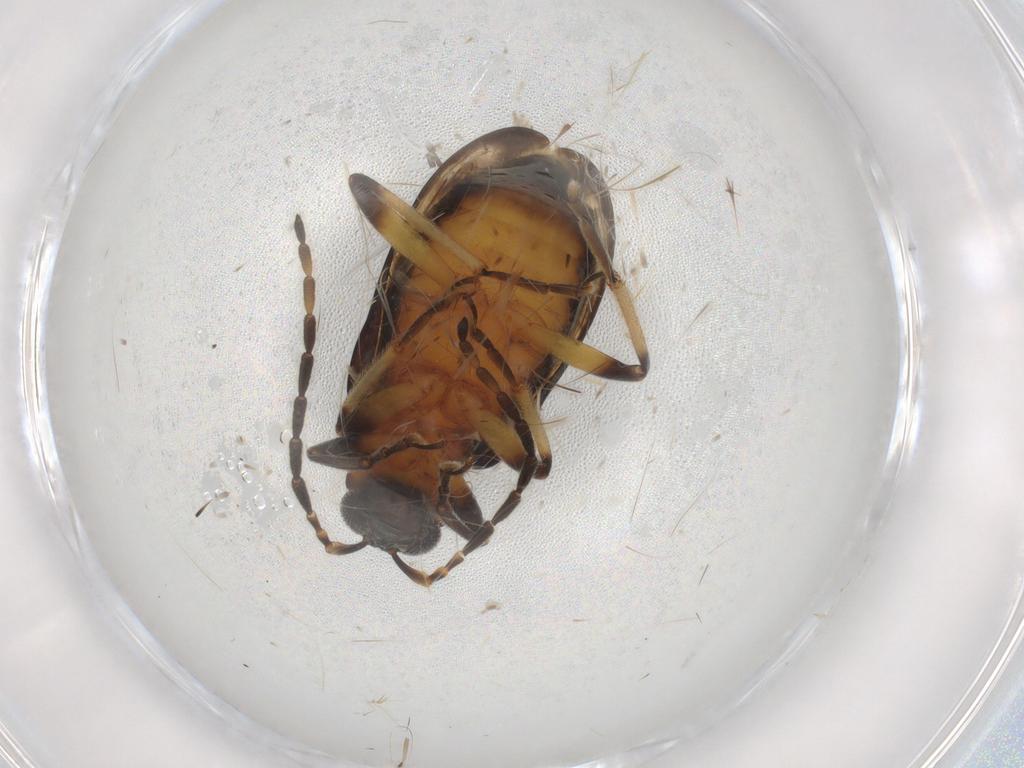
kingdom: Animalia
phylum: Arthropoda
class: Insecta
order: Coleoptera
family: Chrysomelidae
